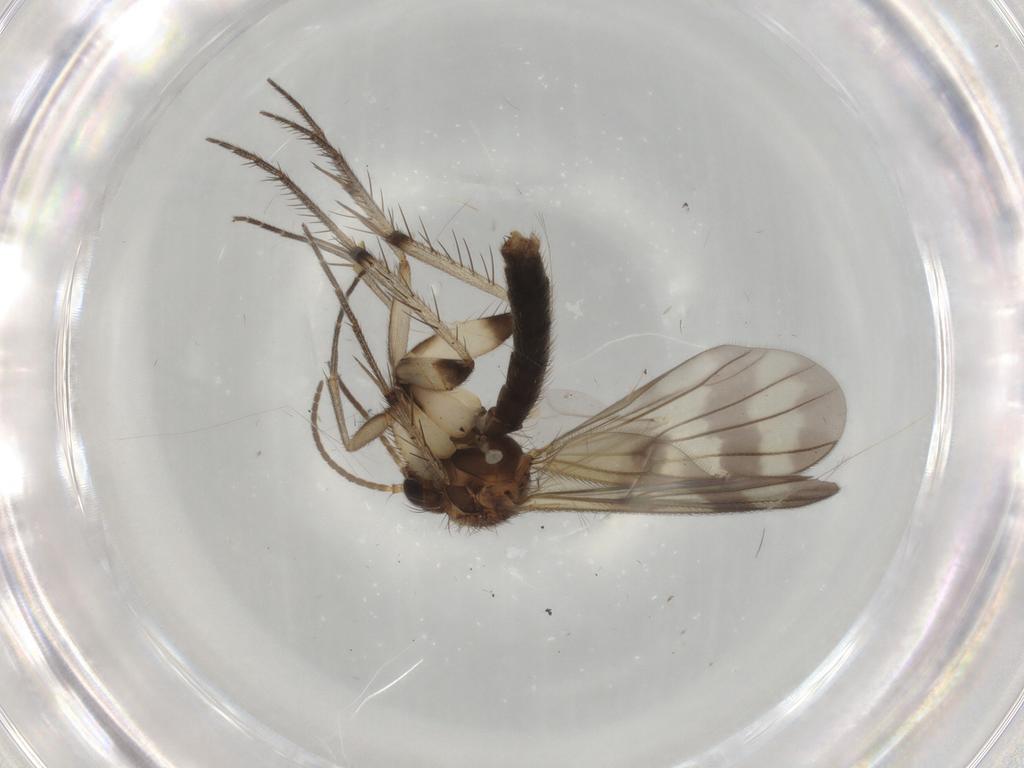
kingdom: Animalia
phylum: Arthropoda
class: Insecta
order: Diptera
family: Mycetophilidae
